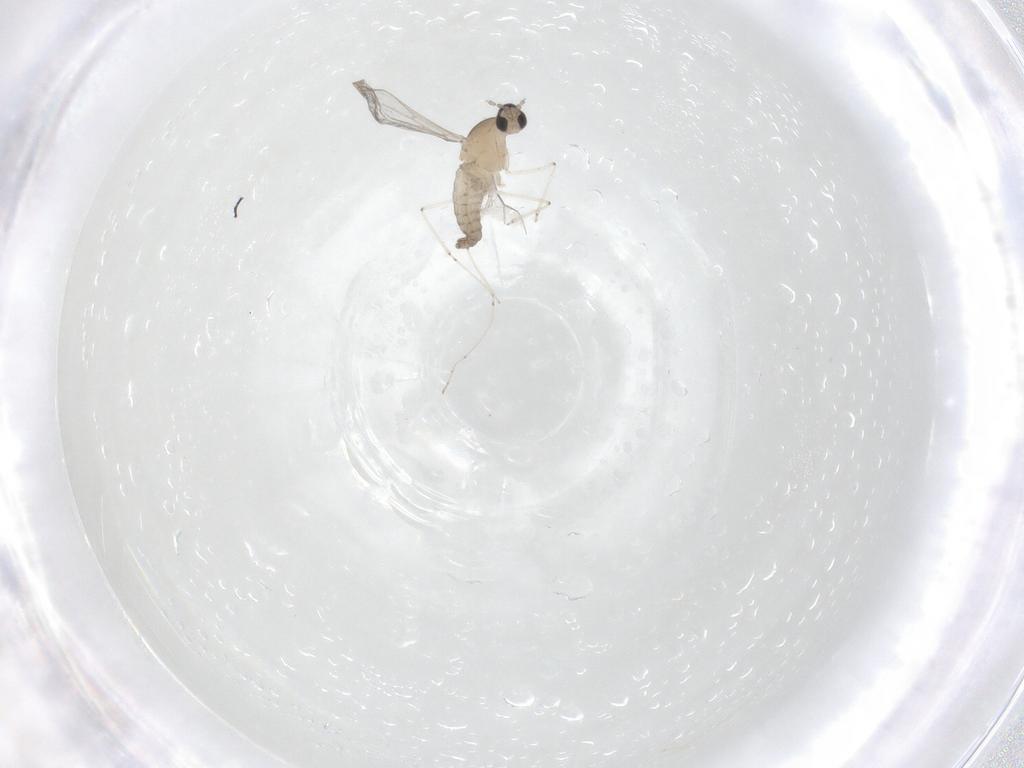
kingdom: Animalia
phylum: Arthropoda
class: Insecta
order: Diptera
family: Cecidomyiidae
